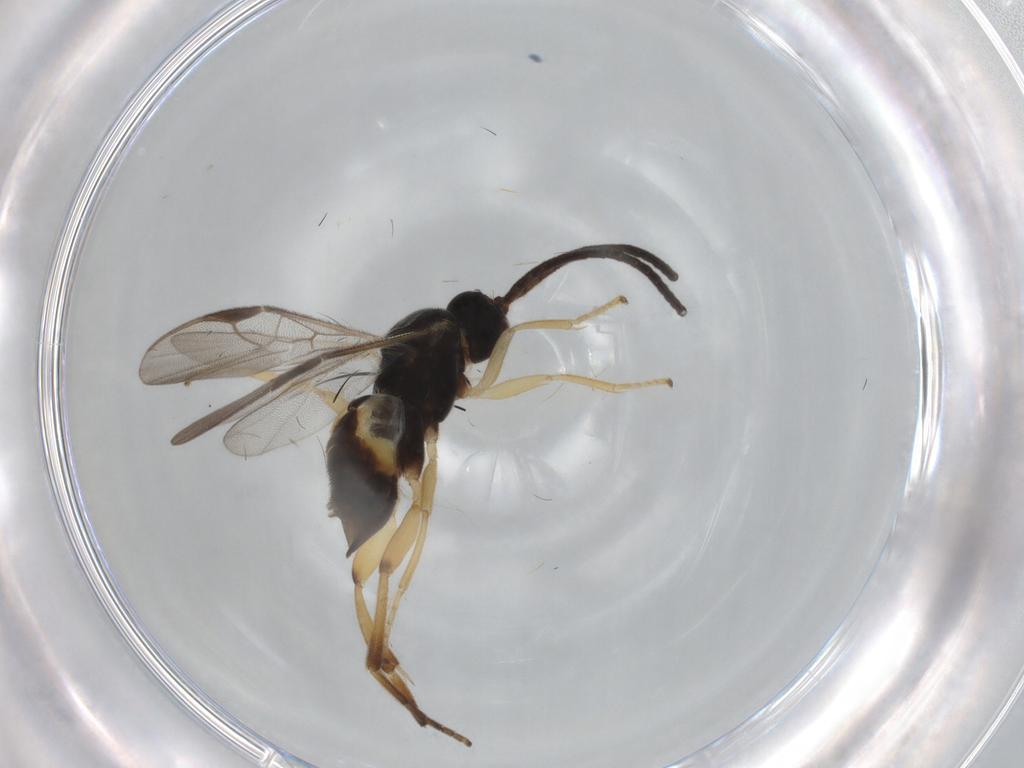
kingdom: Animalia
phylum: Arthropoda
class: Insecta
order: Hymenoptera
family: Braconidae
